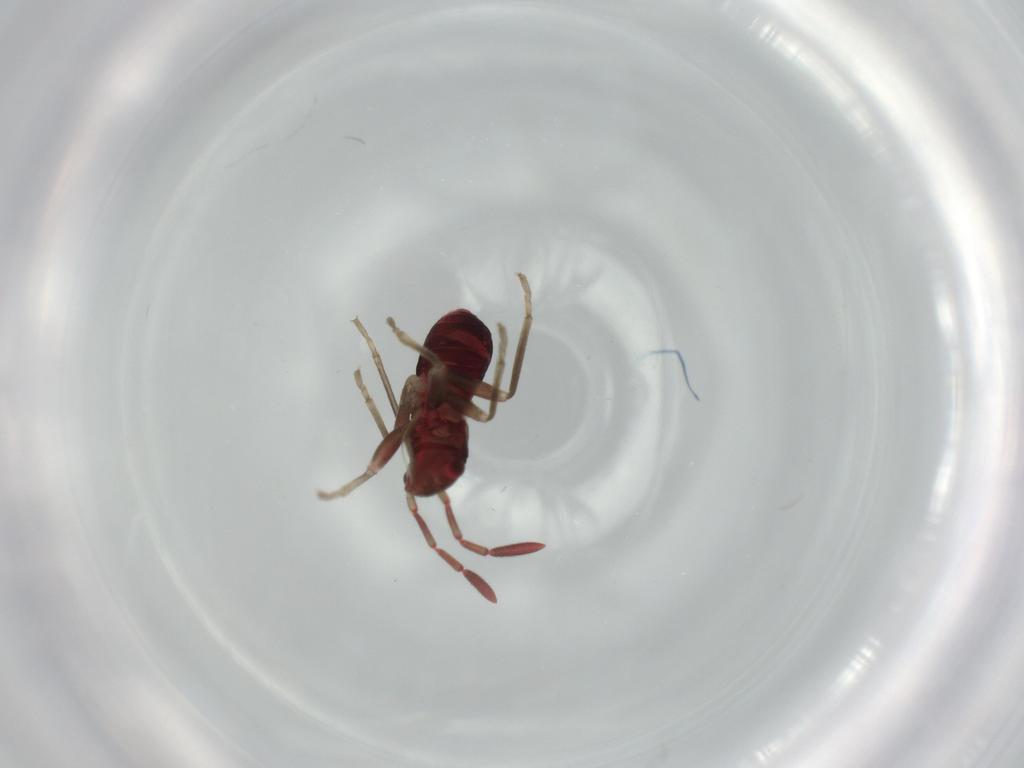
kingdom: Animalia
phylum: Arthropoda
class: Insecta
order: Hemiptera
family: Rhyparochromidae
